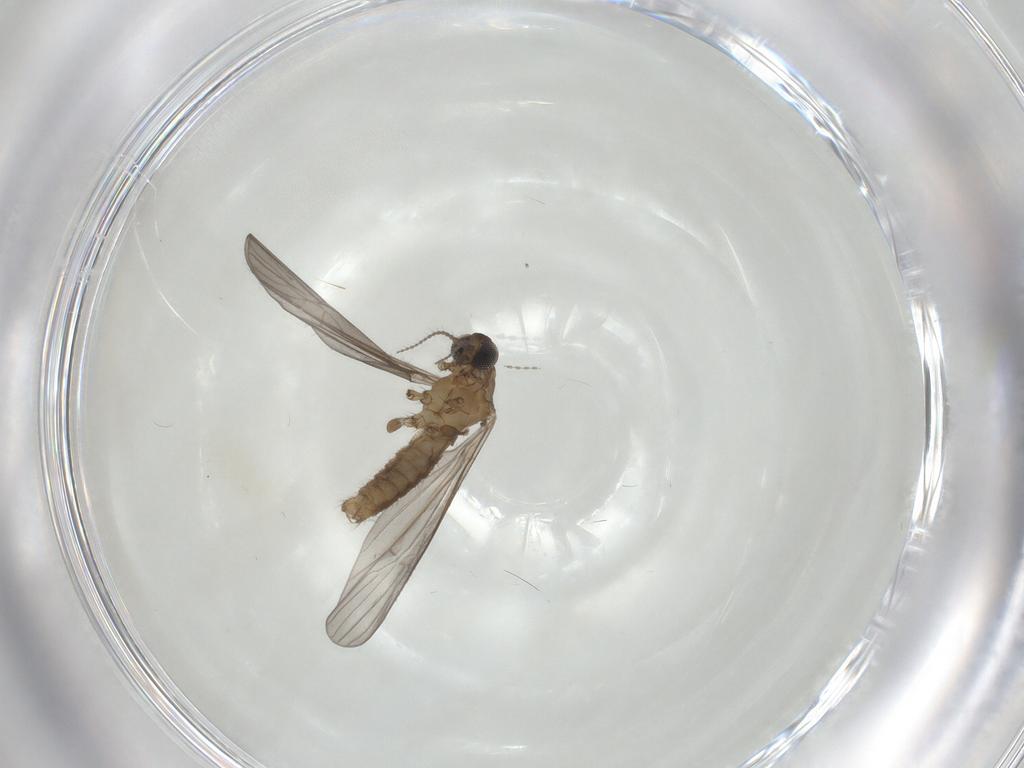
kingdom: Animalia
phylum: Arthropoda
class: Insecta
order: Diptera
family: Limoniidae
